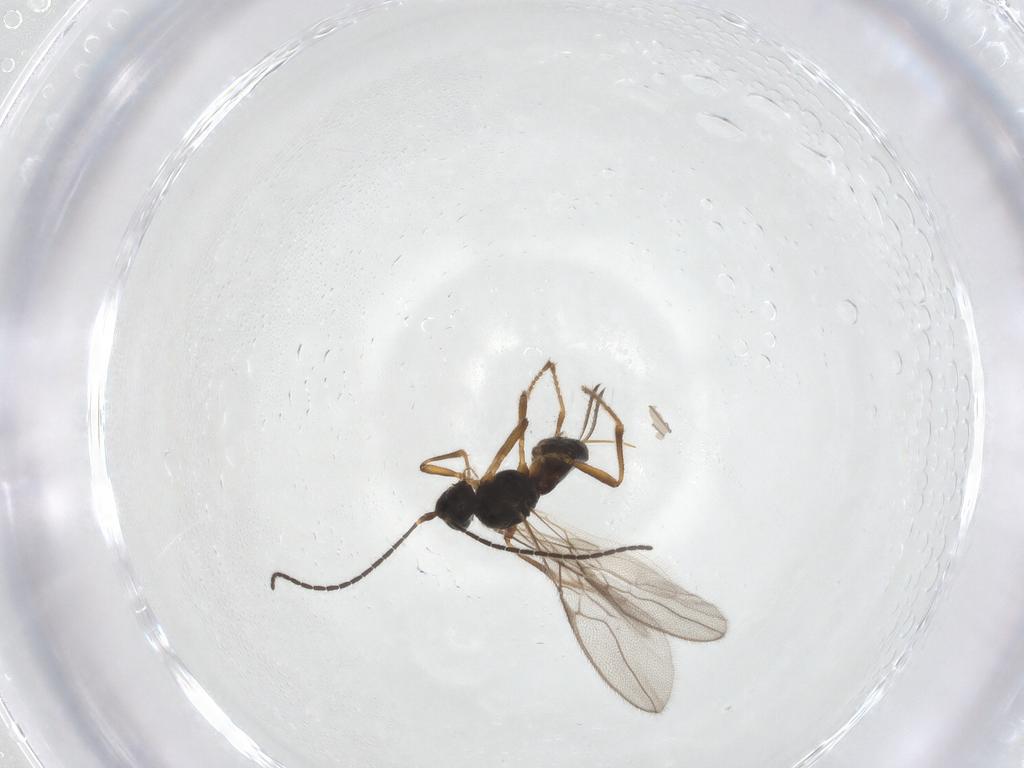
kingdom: Animalia
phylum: Arthropoda
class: Insecta
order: Hymenoptera
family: Braconidae
